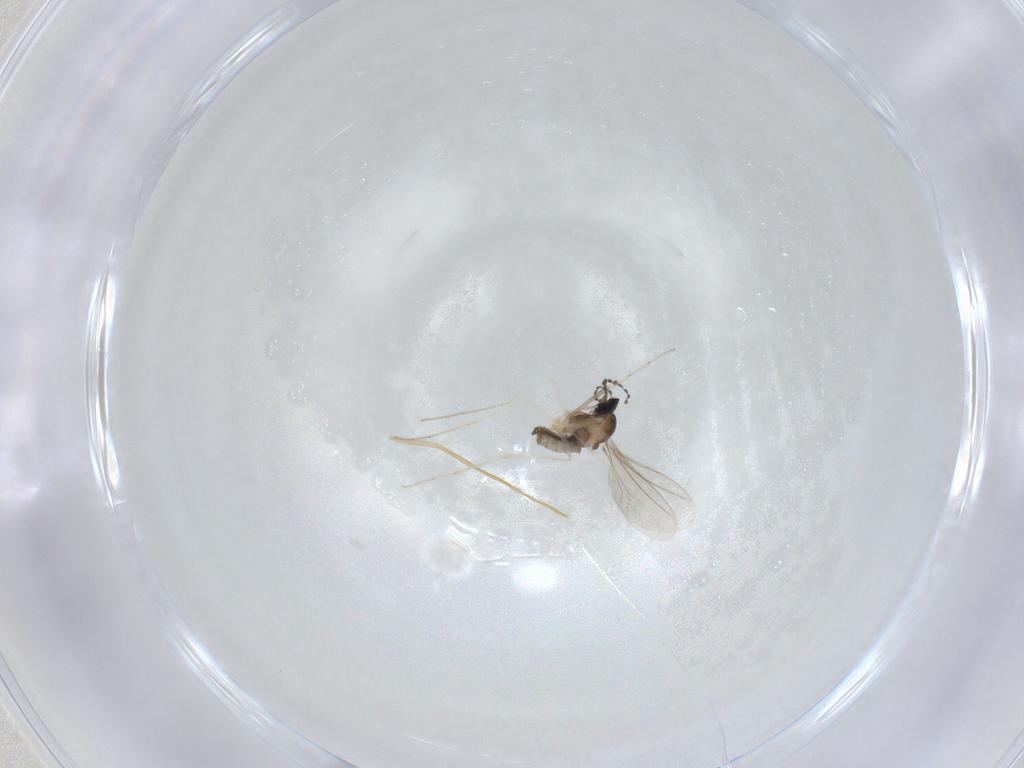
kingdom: Animalia
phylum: Arthropoda
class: Insecta
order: Diptera
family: Cecidomyiidae
